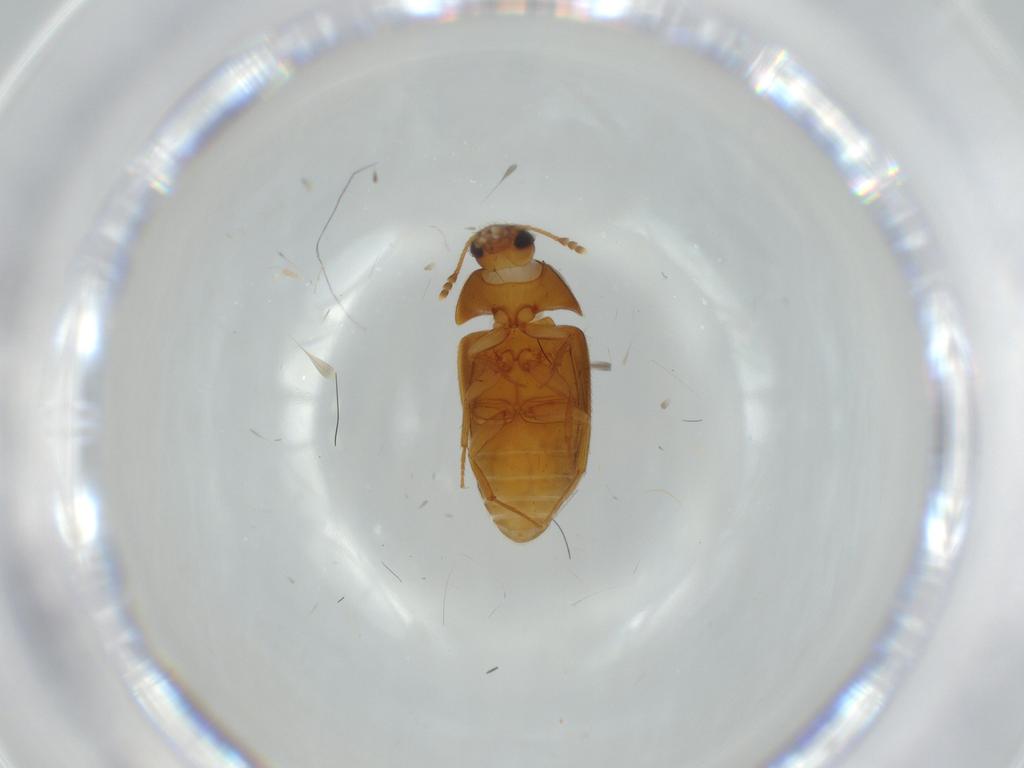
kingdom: Animalia
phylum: Arthropoda
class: Insecta
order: Coleoptera
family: Mycetophagidae
